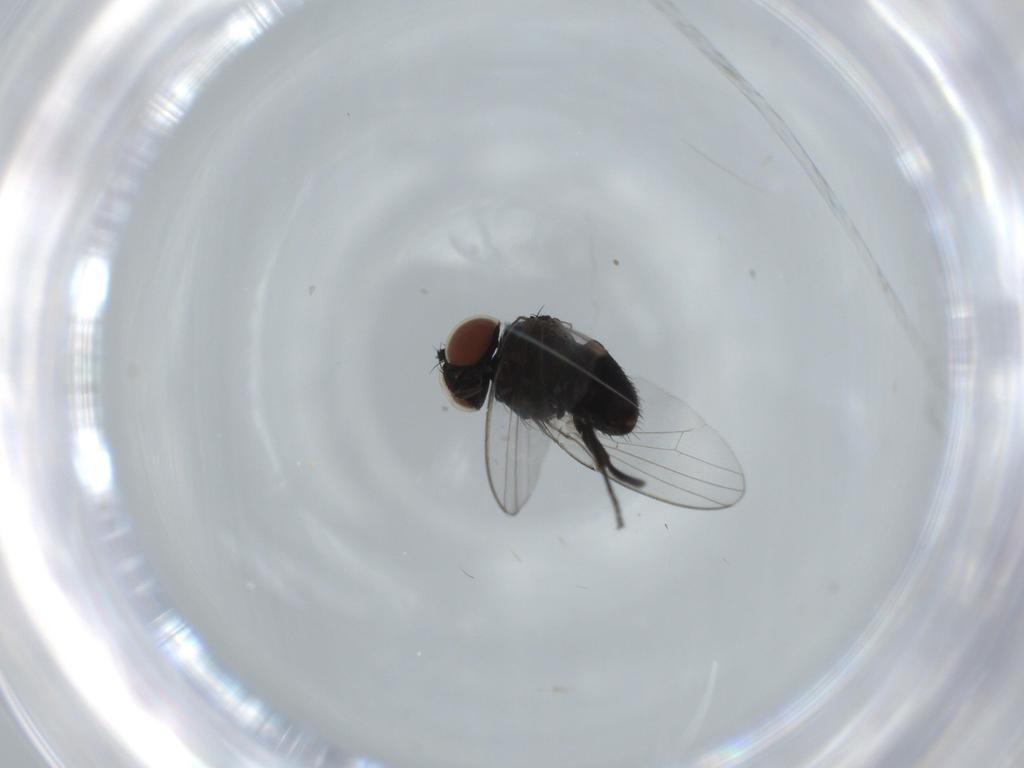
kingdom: Animalia
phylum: Arthropoda
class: Insecta
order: Diptera
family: Milichiidae
